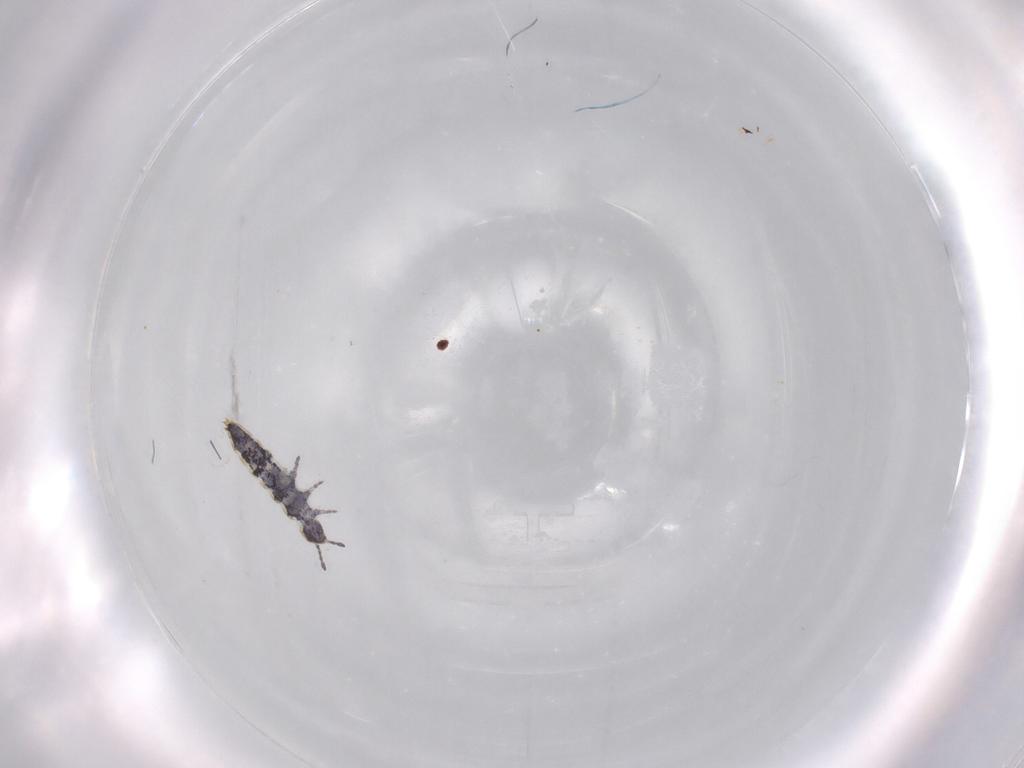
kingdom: Animalia
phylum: Arthropoda
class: Collembola
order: Entomobryomorpha
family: Isotomidae
